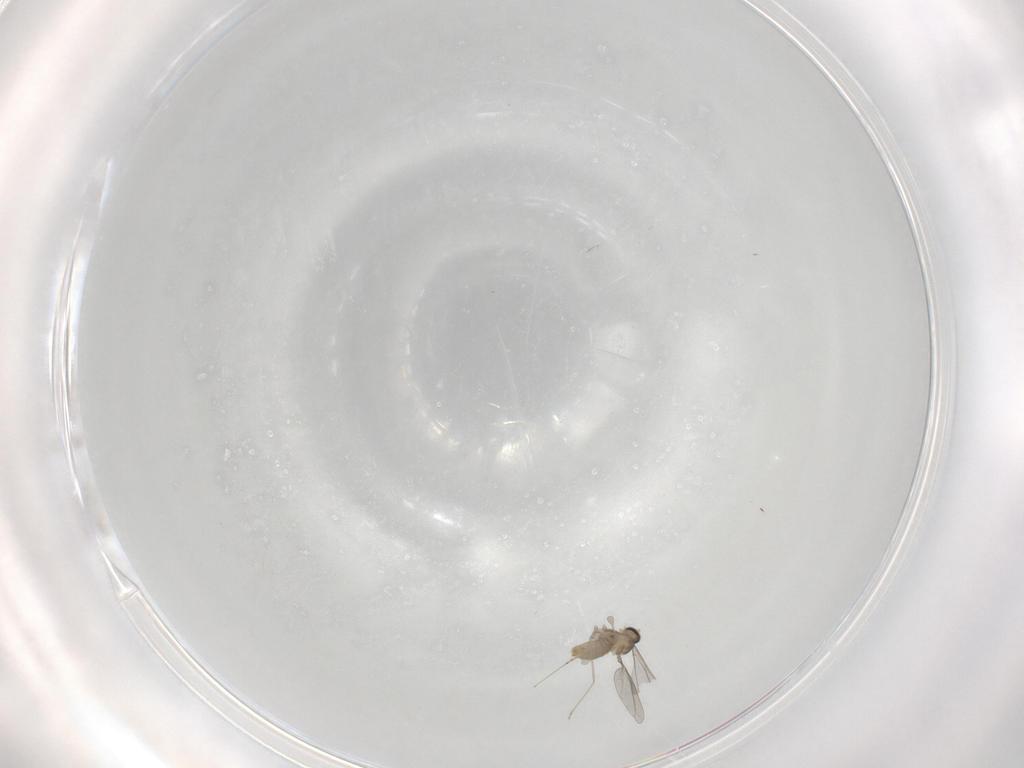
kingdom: Animalia
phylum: Arthropoda
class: Insecta
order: Diptera
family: Cecidomyiidae
